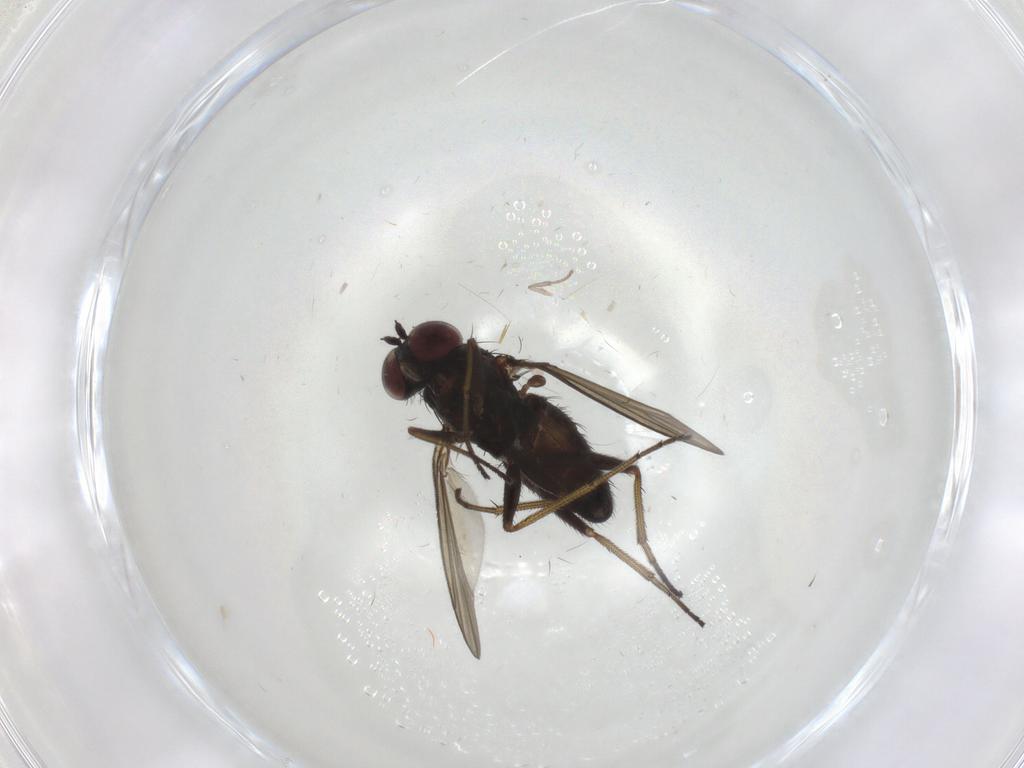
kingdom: Animalia
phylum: Arthropoda
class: Insecta
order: Diptera
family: Dolichopodidae
